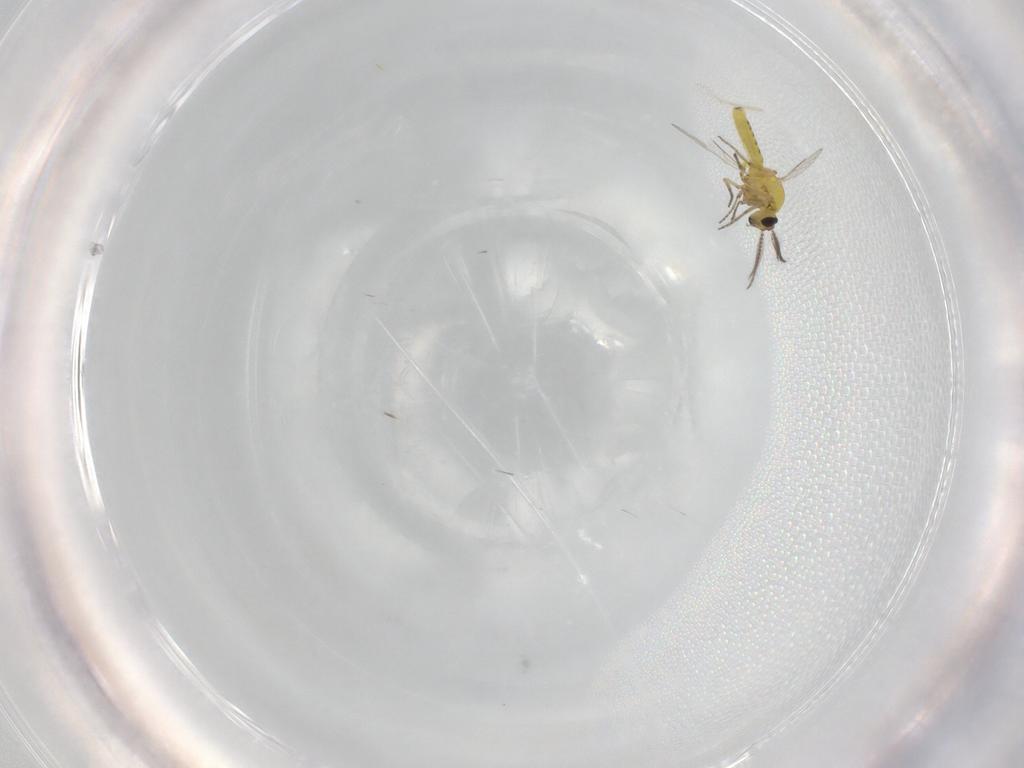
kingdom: Animalia
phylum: Arthropoda
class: Insecta
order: Diptera
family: Ceratopogonidae
